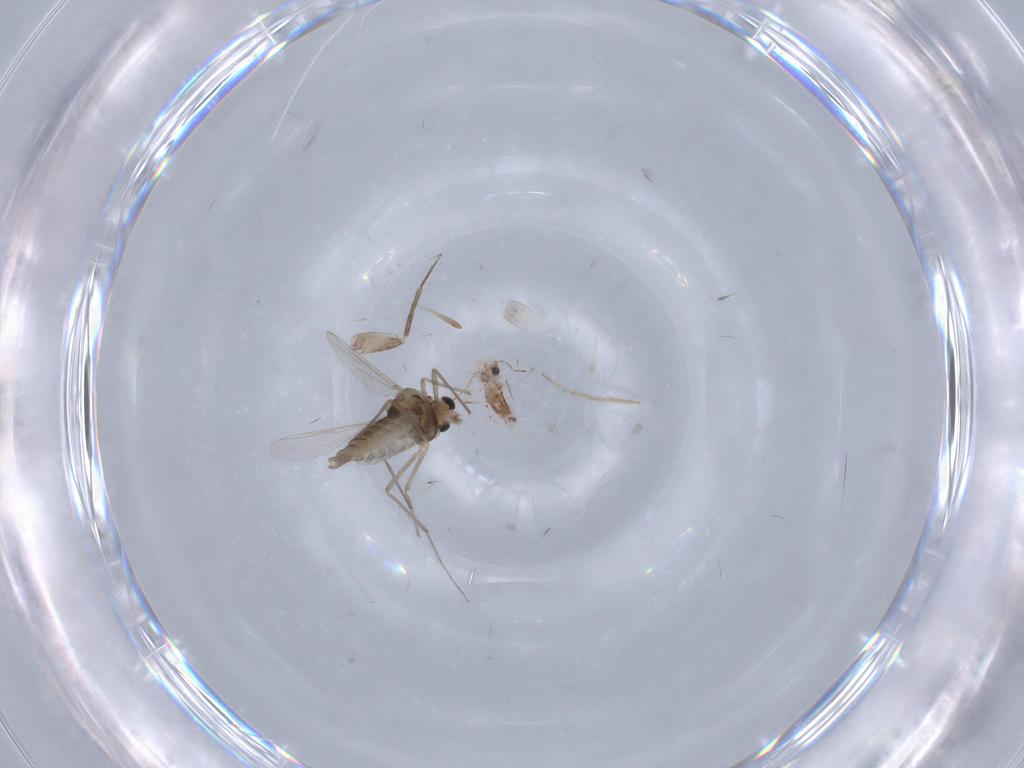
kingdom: Animalia
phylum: Arthropoda
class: Insecta
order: Diptera
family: Chironomidae
